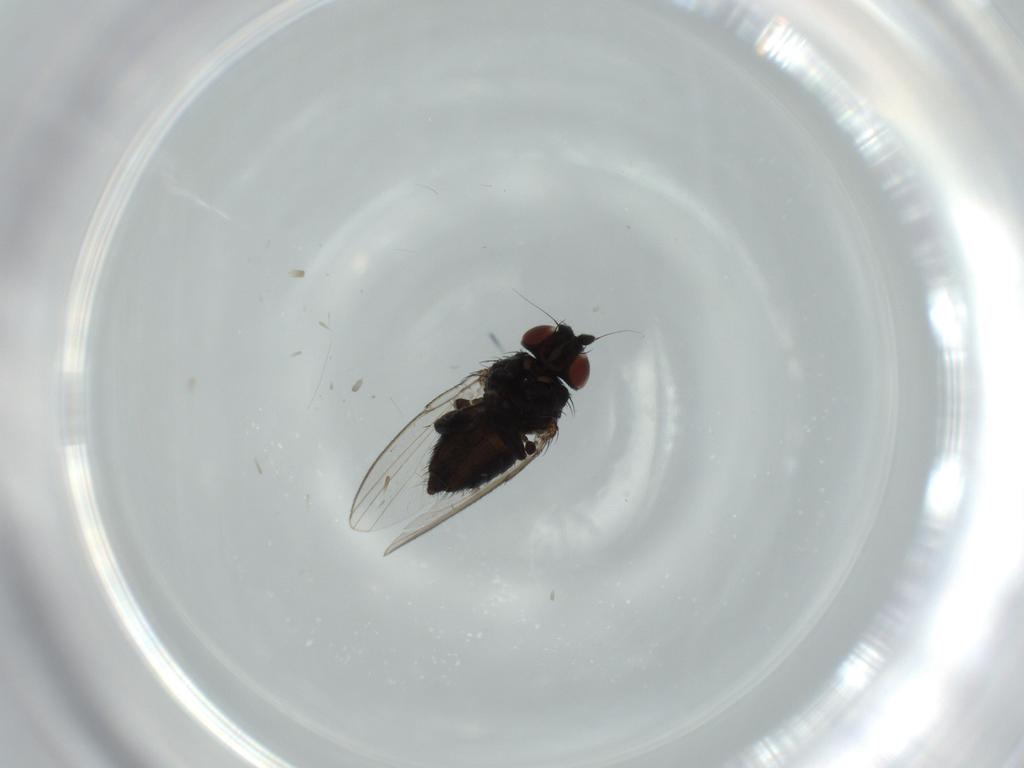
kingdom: Animalia
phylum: Arthropoda
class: Insecta
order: Diptera
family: Milichiidae
